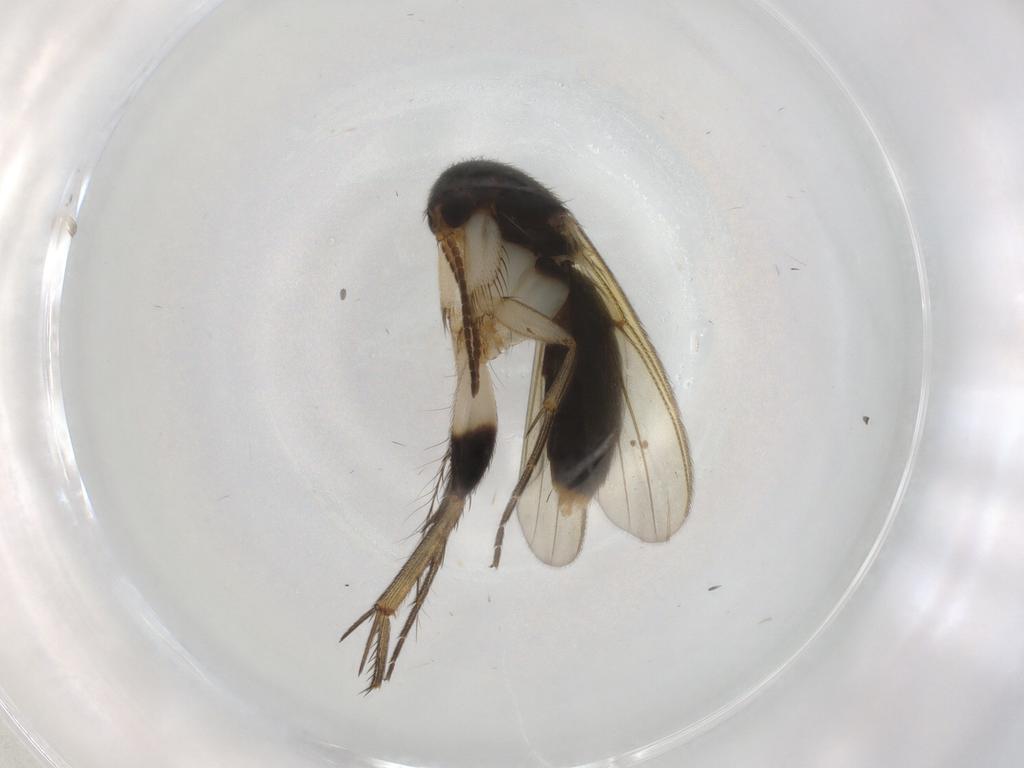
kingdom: Animalia
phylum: Arthropoda
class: Insecta
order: Diptera
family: Mycetophilidae
